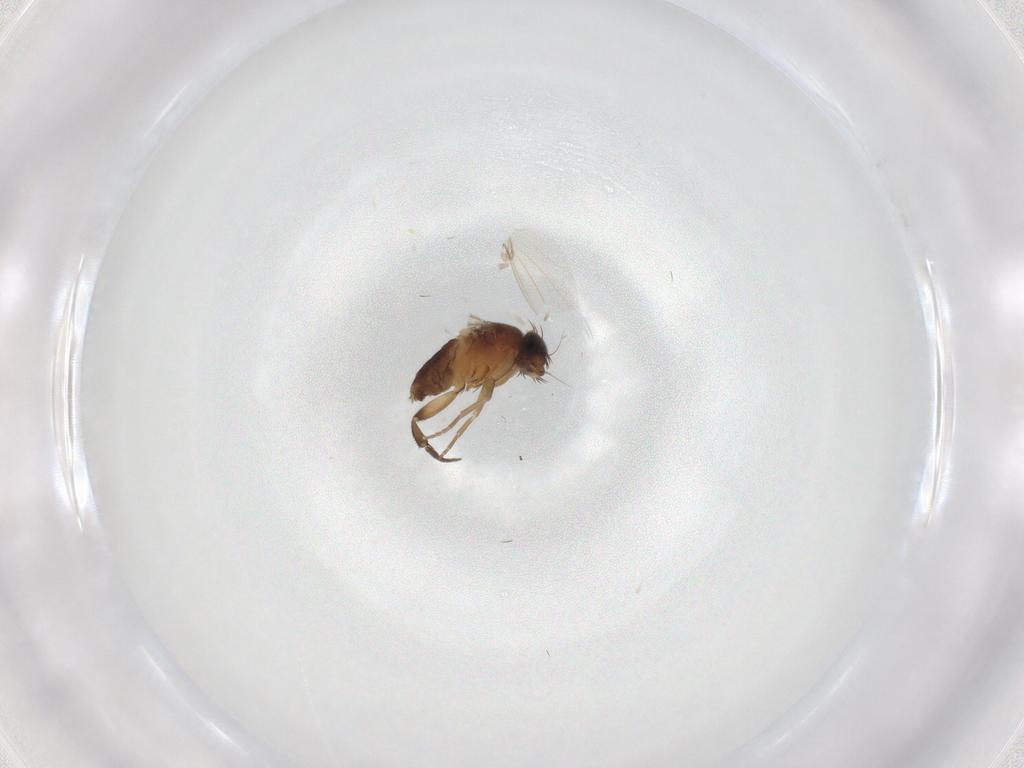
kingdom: Animalia
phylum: Arthropoda
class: Insecta
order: Diptera
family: Phoridae
